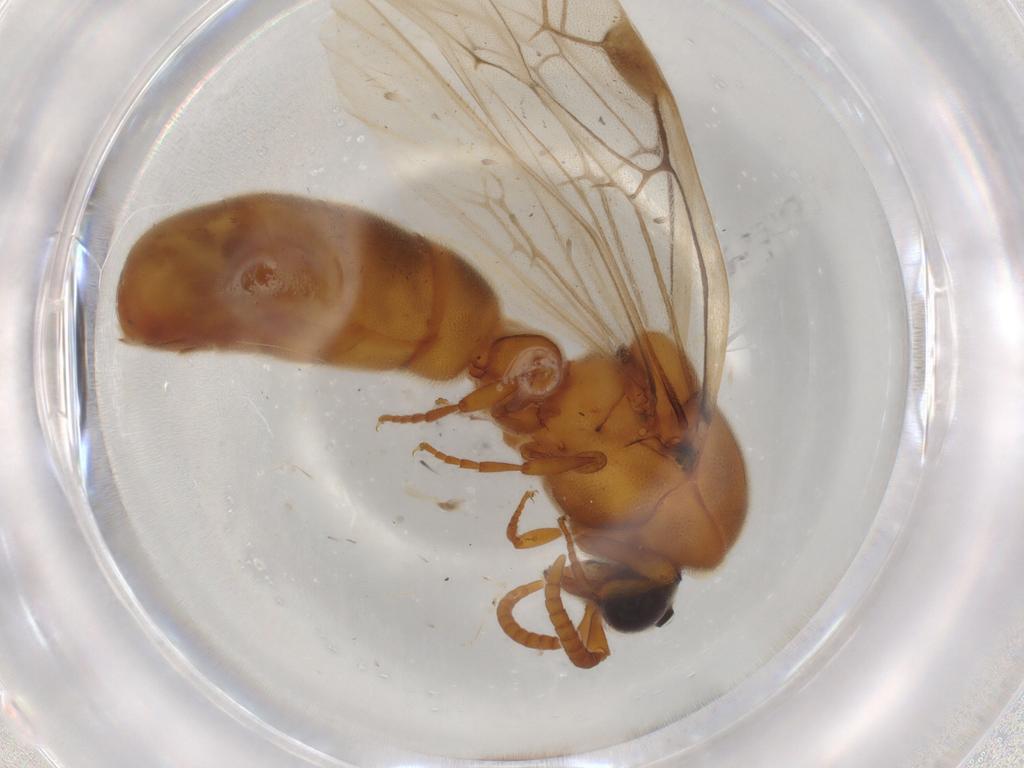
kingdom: Animalia
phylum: Arthropoda
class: Insecta
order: Hymenoptera
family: Formicidae
